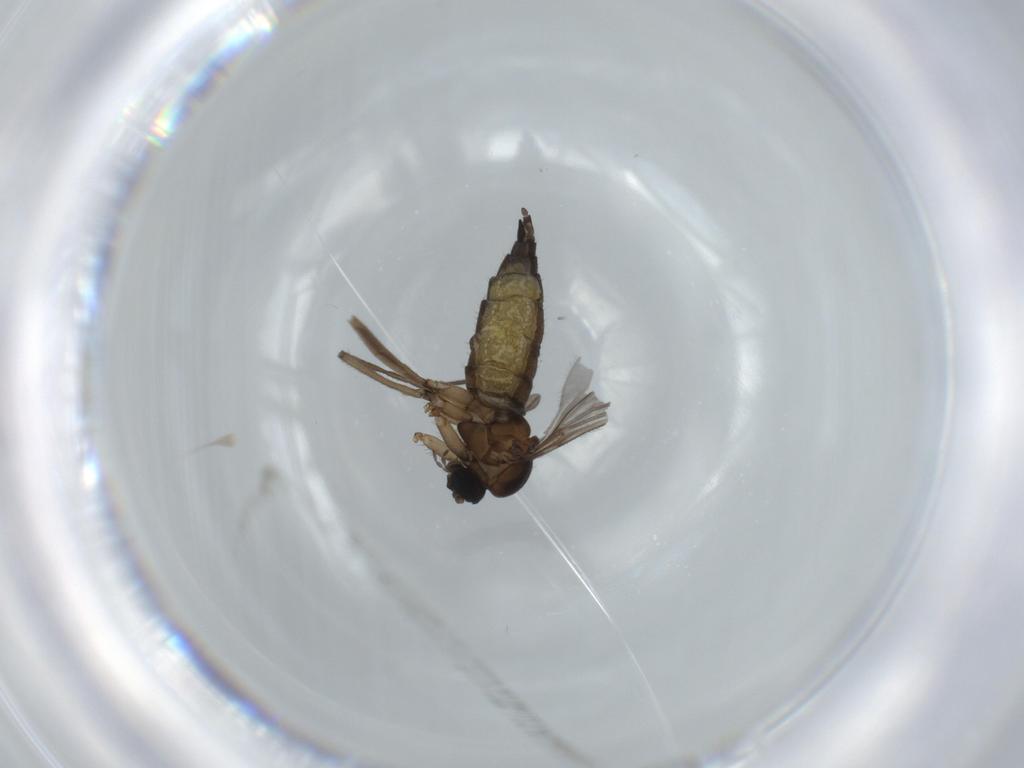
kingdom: Animalia
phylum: Arthropoda
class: Insecta
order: Diptera
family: Sciaridae
